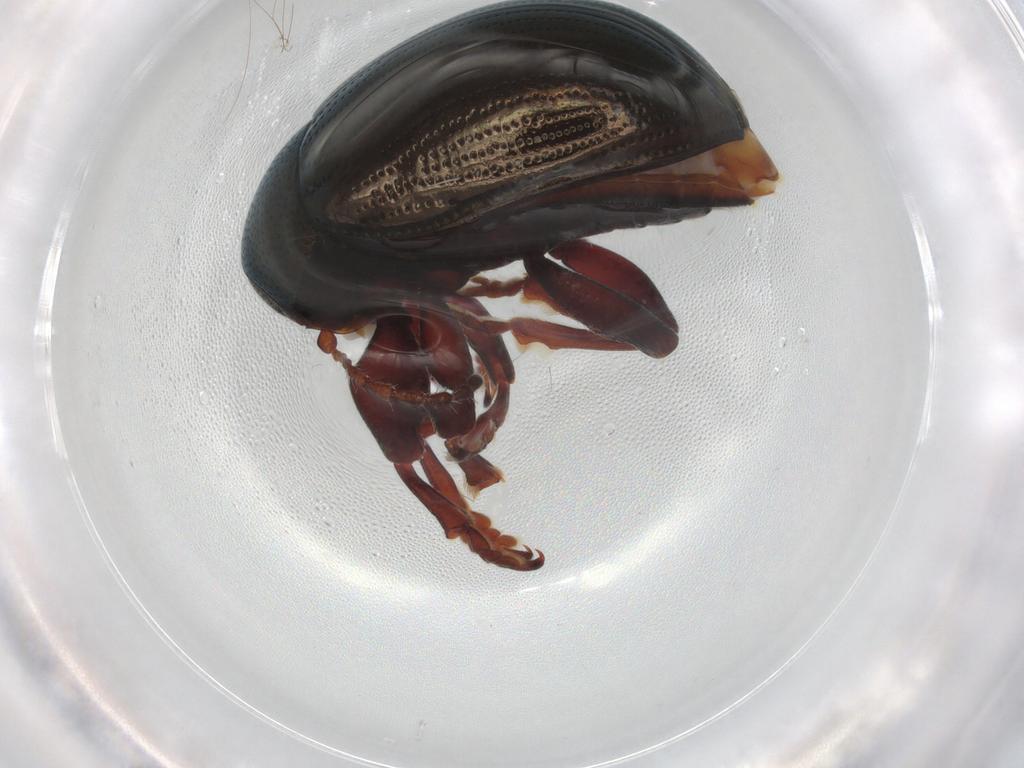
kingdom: Animalia
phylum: Arthropoda
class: Insecta
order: Coleoptera
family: Chrysomelidae
